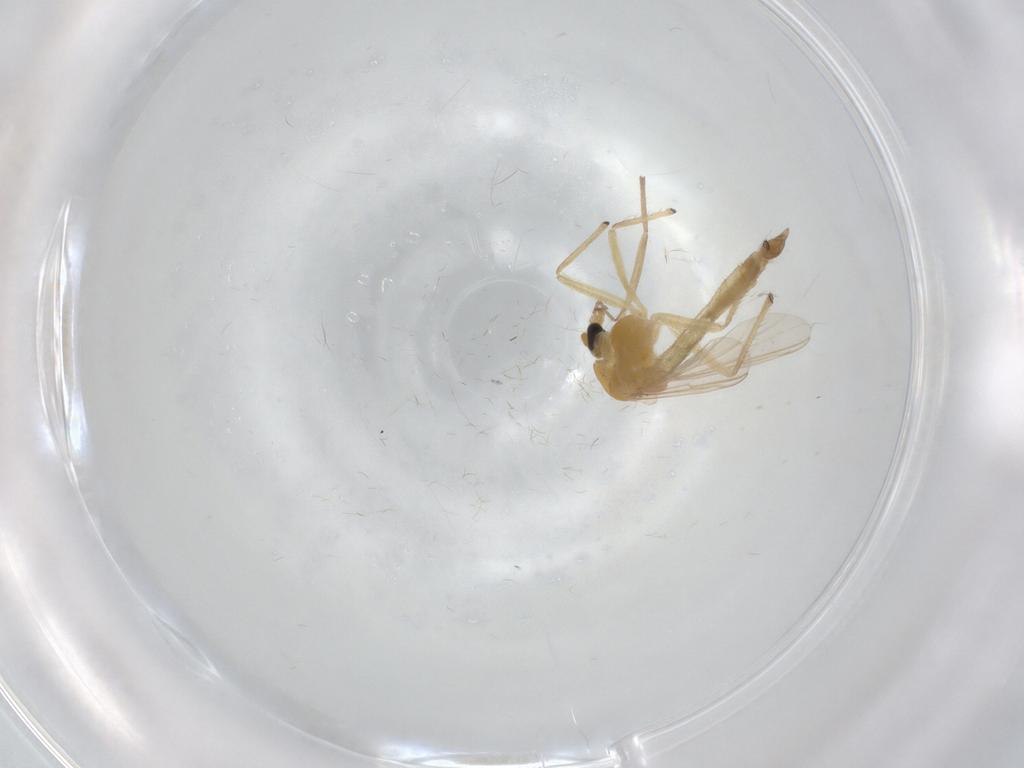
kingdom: Animalia
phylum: Arthropoda
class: Insecta
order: Diptera
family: Chironomidae
